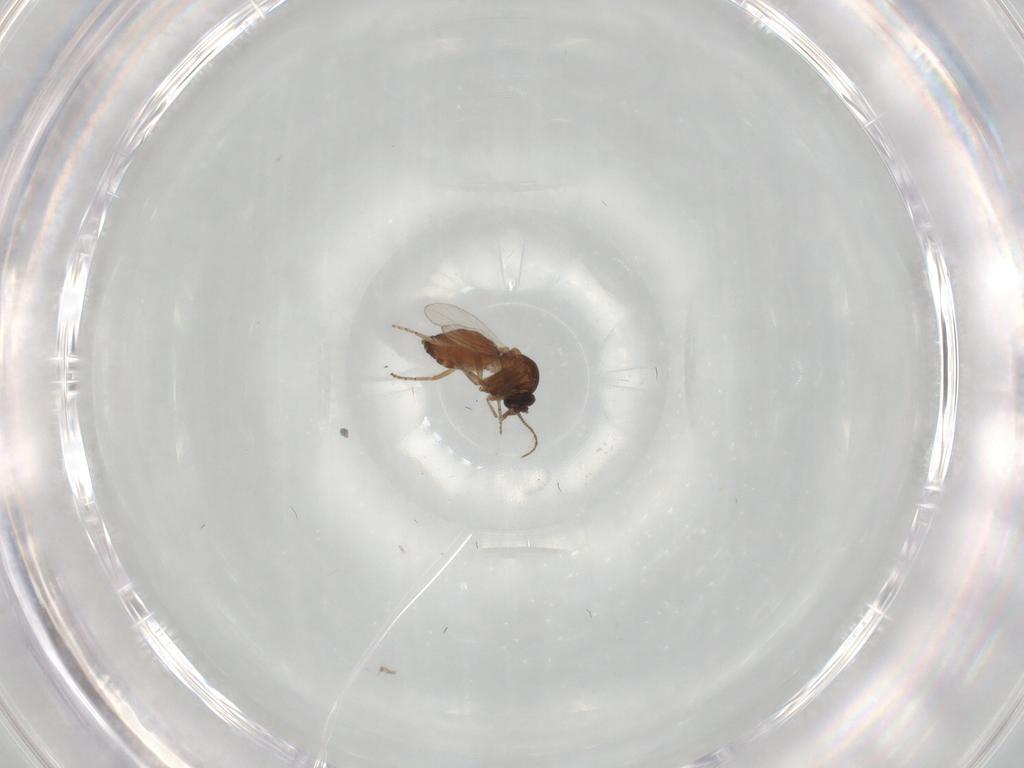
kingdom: Animalia
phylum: Arthropoda
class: Insecta
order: Diptera
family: Ceratopogonidae
